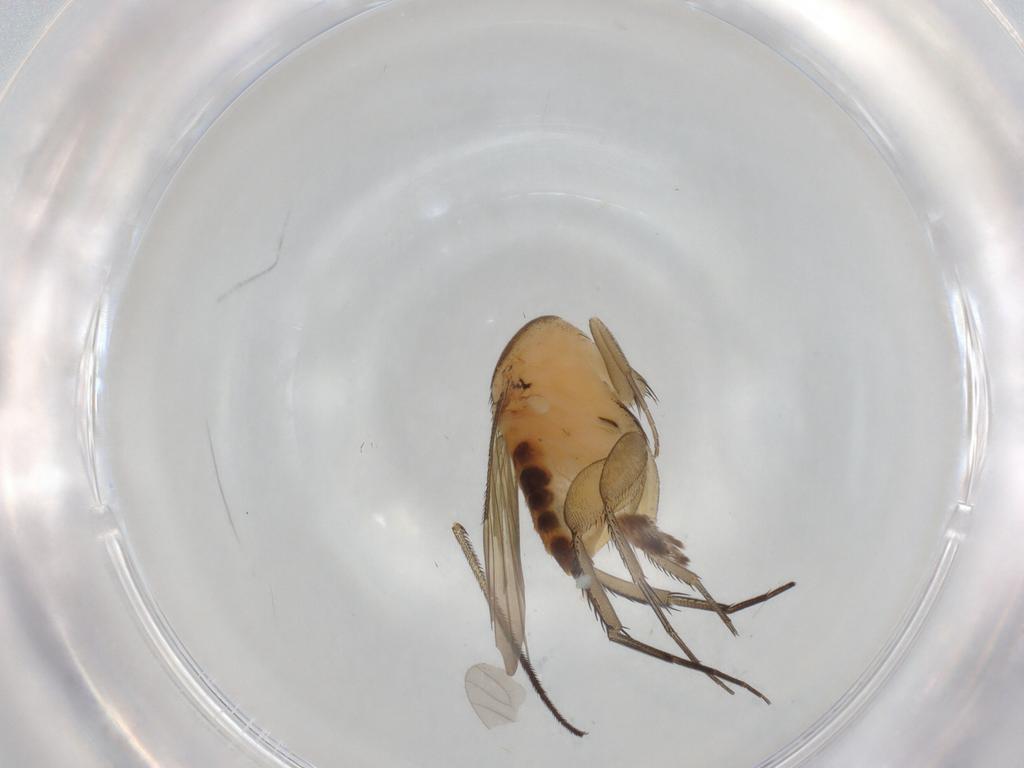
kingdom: Animalia
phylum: Arthropoda
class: Insecta
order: Diptera
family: Phoridae
